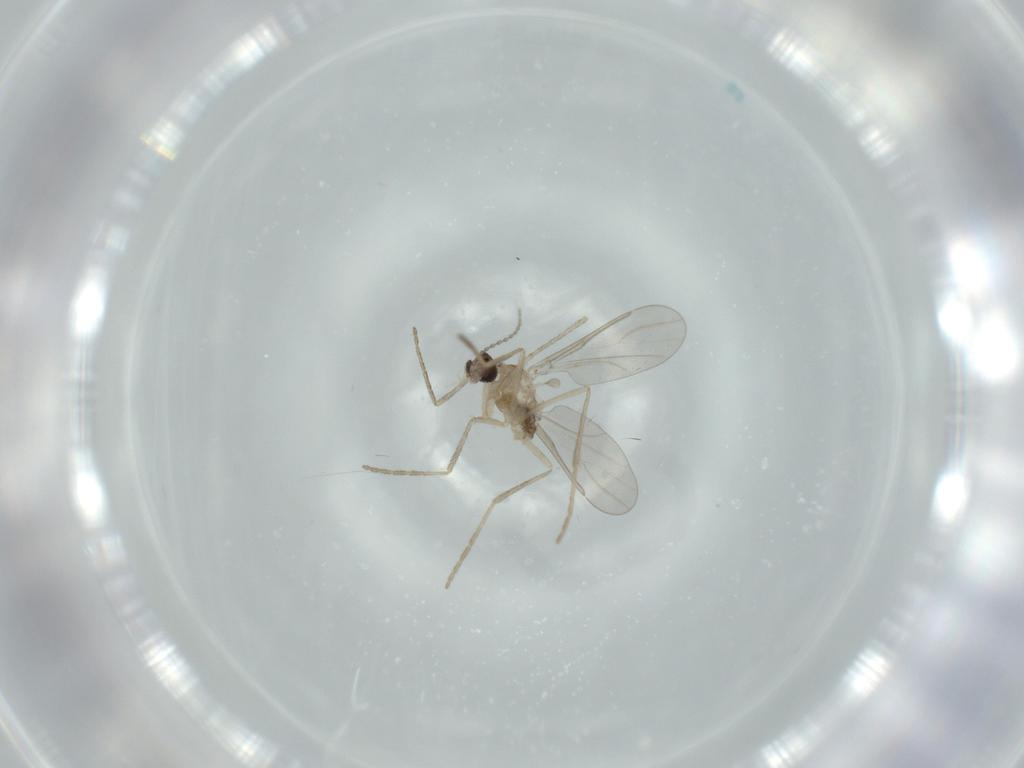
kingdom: Animalia
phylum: Arthropoda
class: Insecta
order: Diptera
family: Cecidomyiidae
